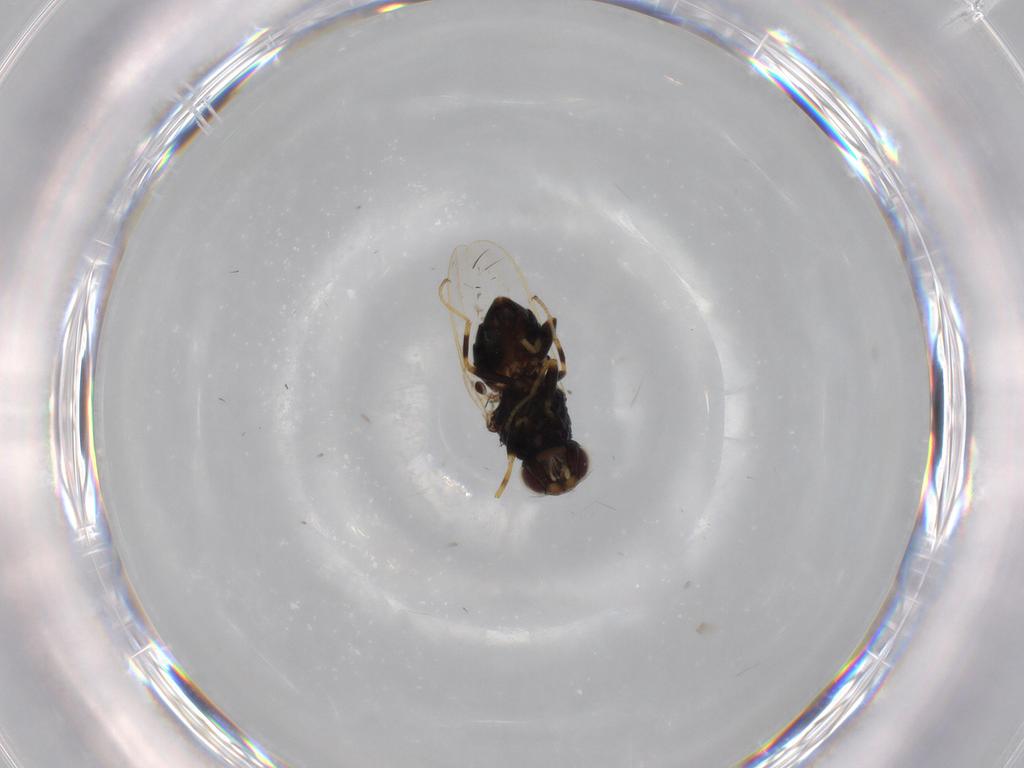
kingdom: Animalia
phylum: Arthropoda
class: Insecta
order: Diptera
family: Chloropidae
